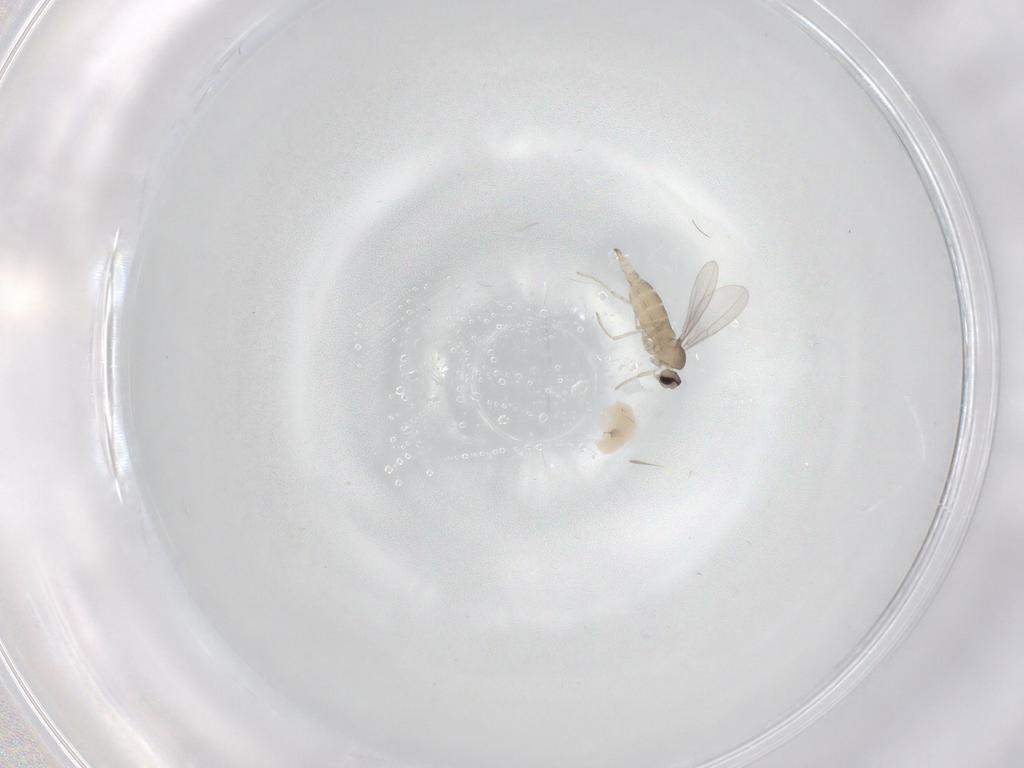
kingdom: Animalia
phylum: Arthropoda
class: Insecta
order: Diptera
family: Cecidomyiidae
